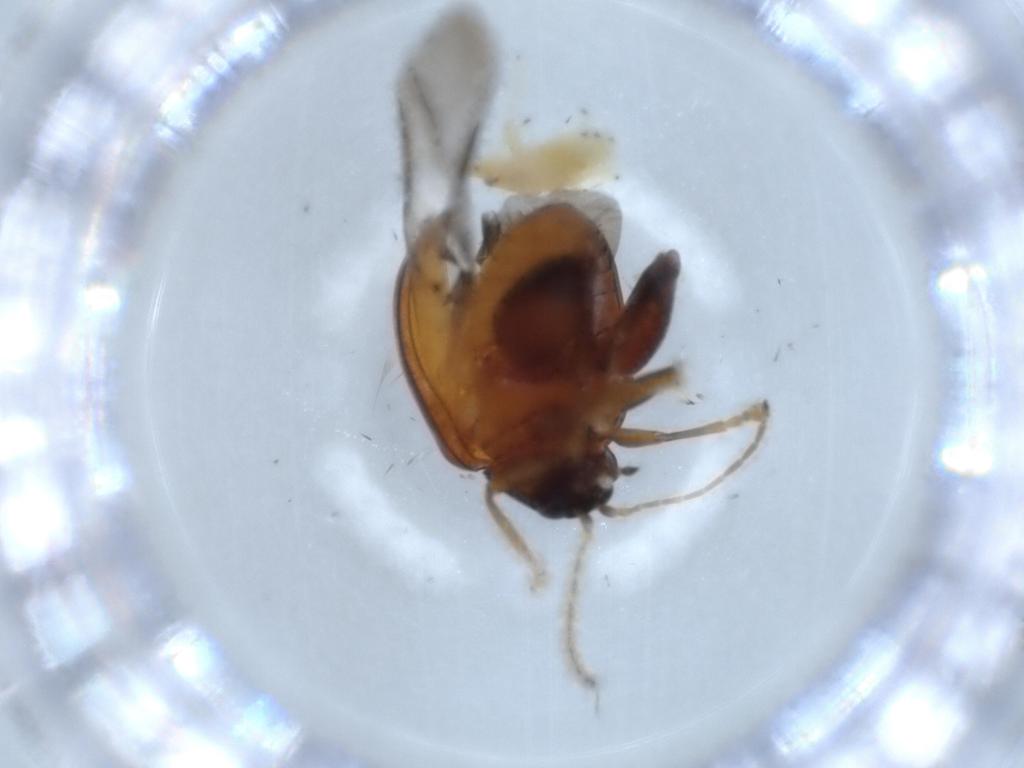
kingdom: Animalia
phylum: Arthropoda
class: Insecta
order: Coleoptera
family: Chrysomelidae
